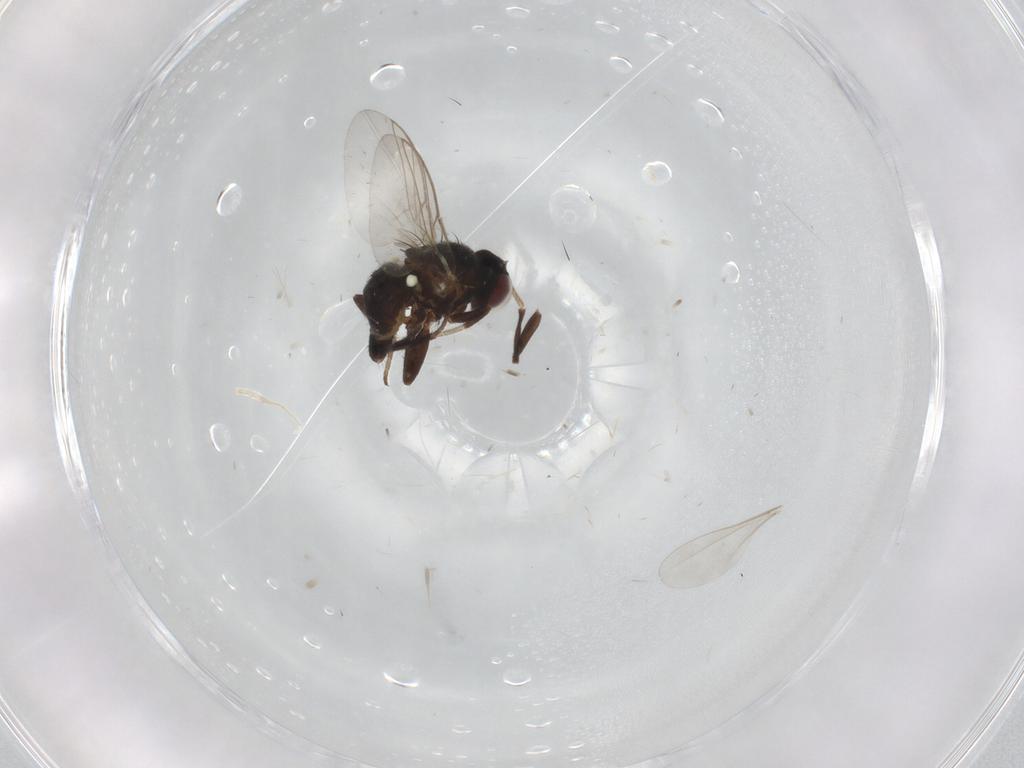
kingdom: Animalia
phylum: Arthropoda
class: Insecta
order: Diptera
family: Agromyzidae
